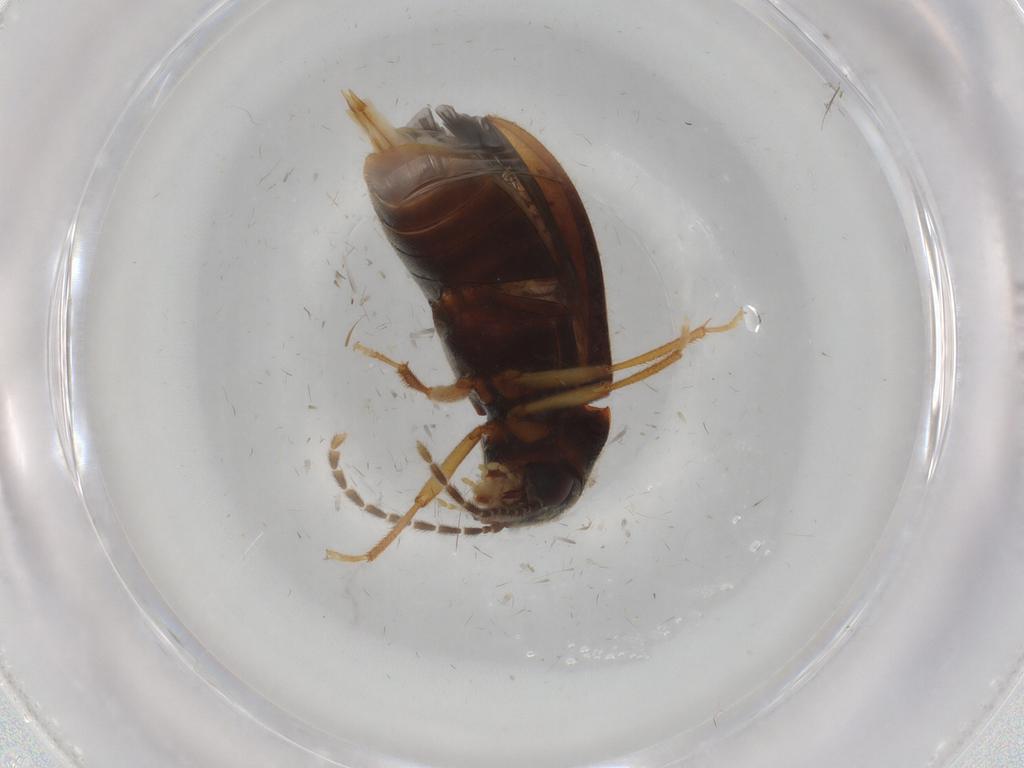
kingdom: Animalia
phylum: Arthropoda
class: Insecta
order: Coleoptera
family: Ptilodactylidae
